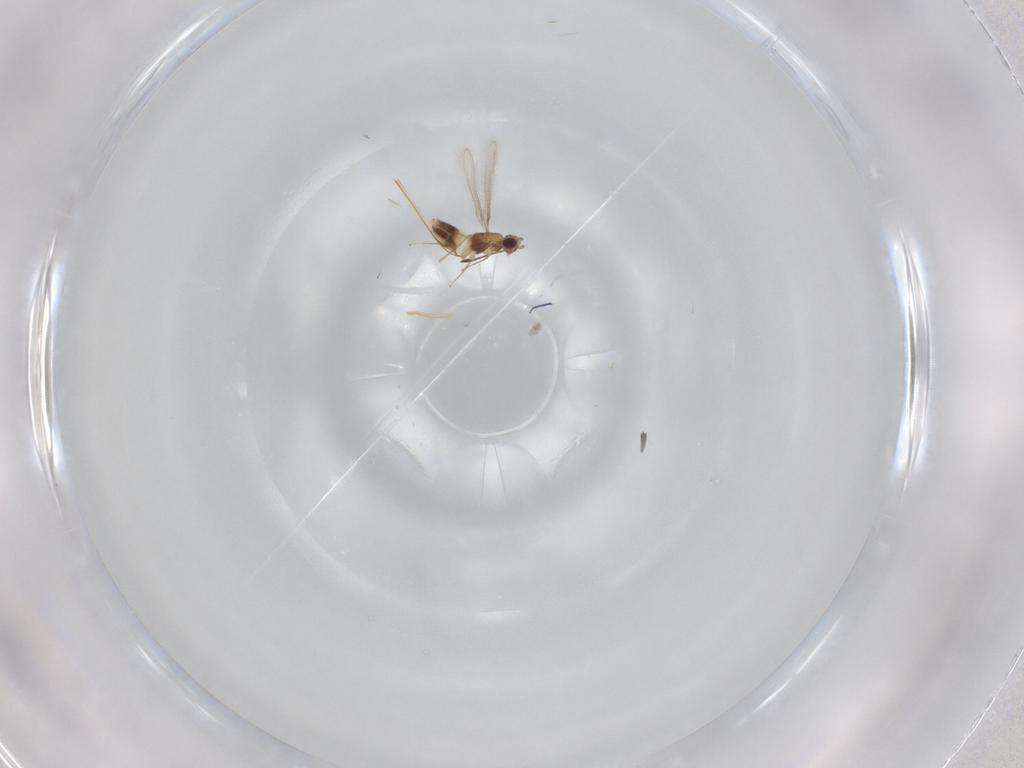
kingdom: Animalia
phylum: Arthropoda
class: Insecta
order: Hymenoptera
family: Mymaridae
